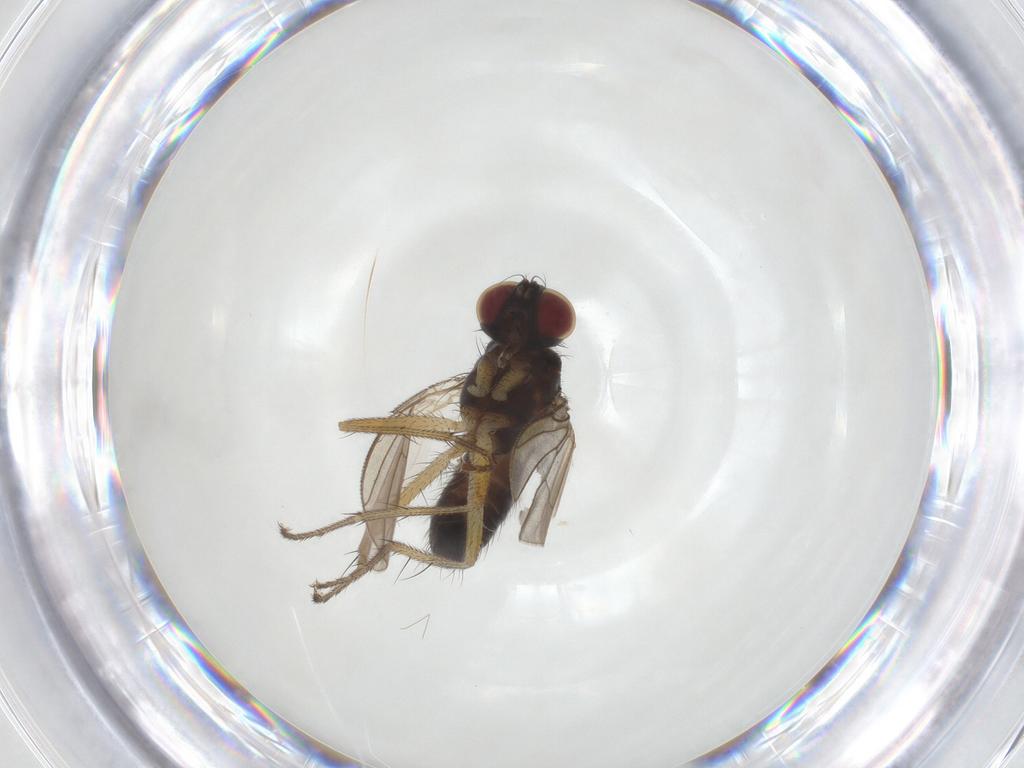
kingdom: Animalia
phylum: Arthropoda
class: Insecta
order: Diptera
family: Muscidae
